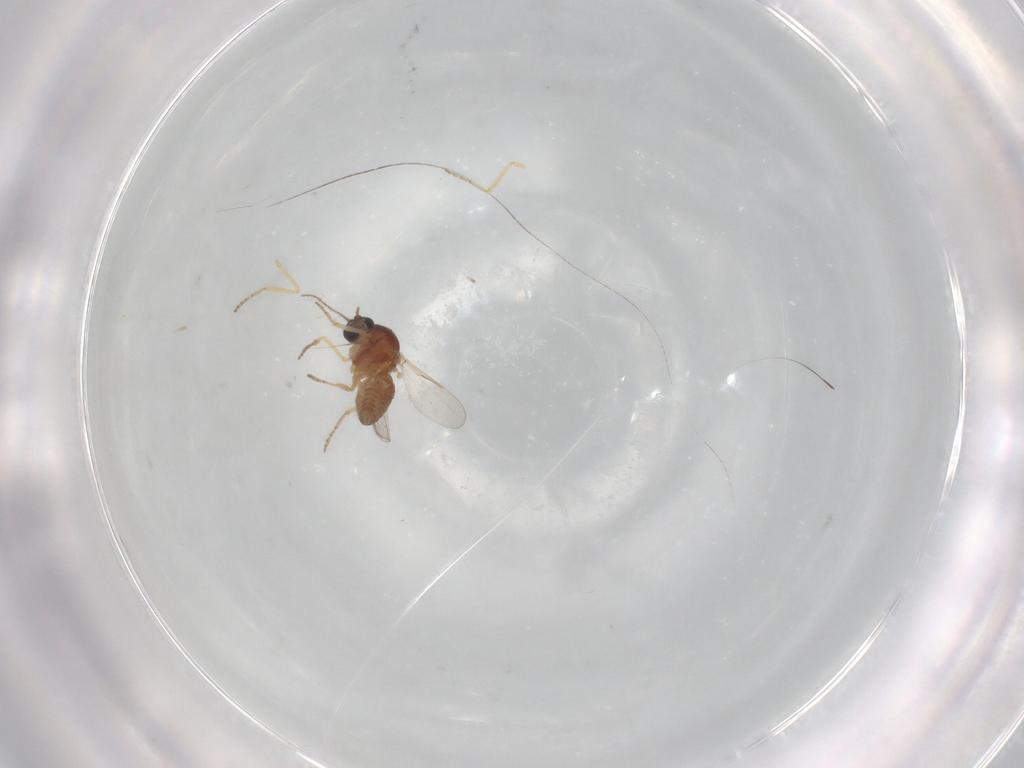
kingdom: Animalia
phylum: Arthropoda
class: Insecta
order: Diptera
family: Ceratopogonidae
